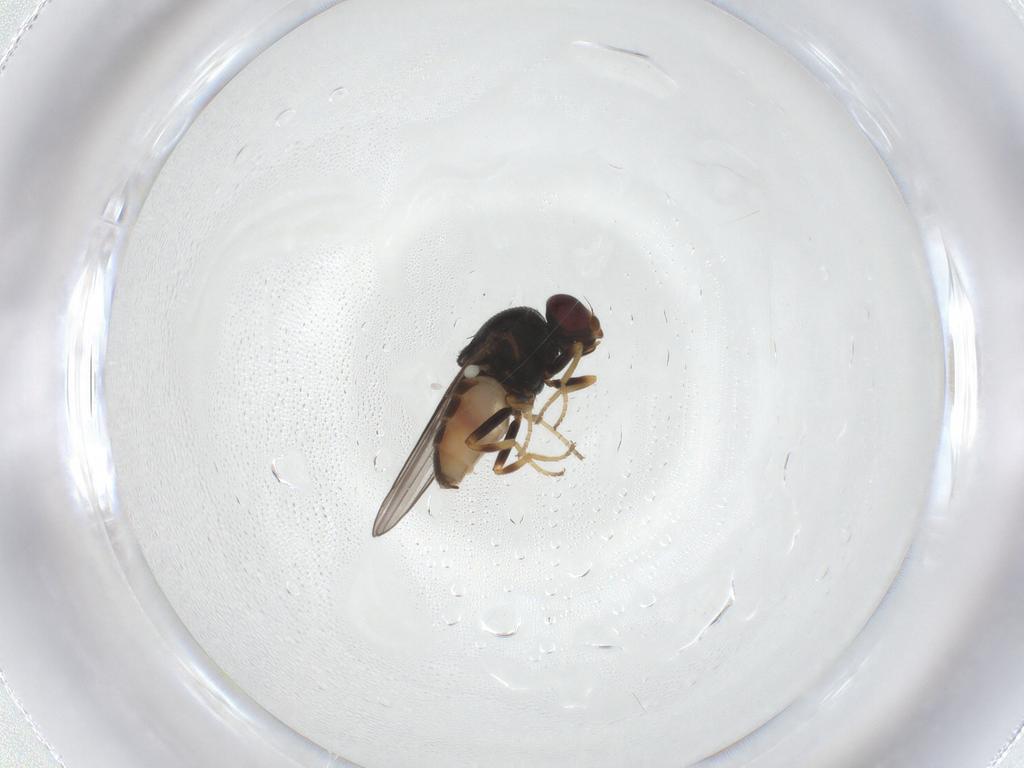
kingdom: Animalia
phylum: Arthropoda
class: Insecta
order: Diptera
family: Chloropidae
